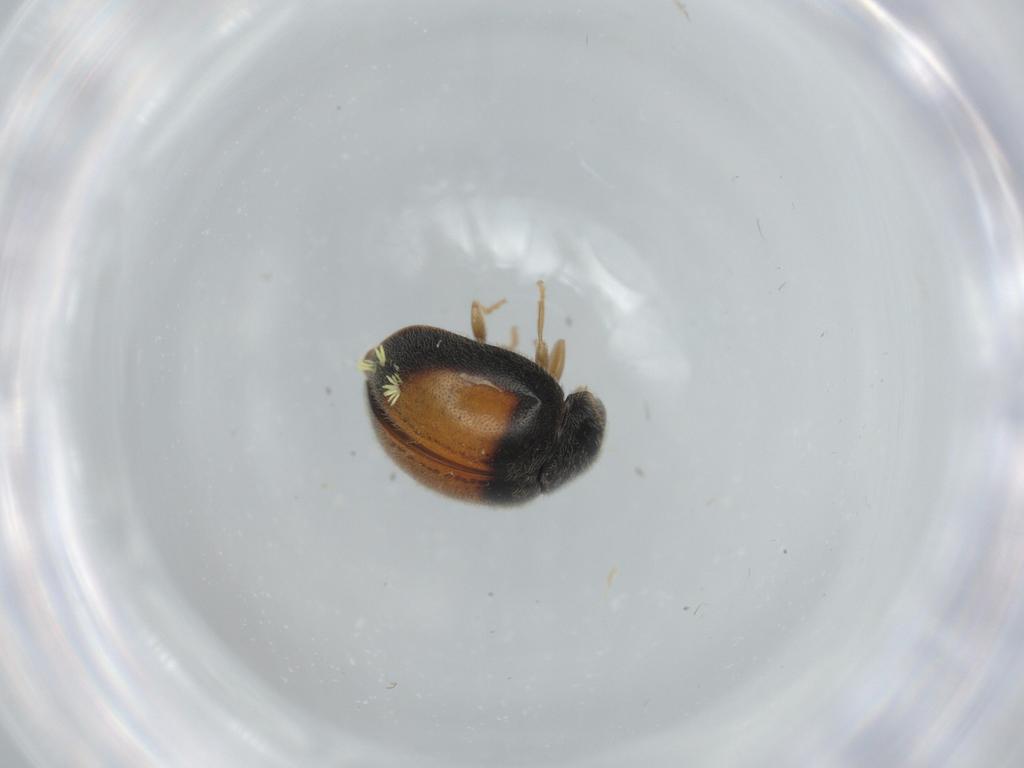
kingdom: Animalia
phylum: Arthropoda
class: Insecta
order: Coleoptera
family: Coccinellidae
